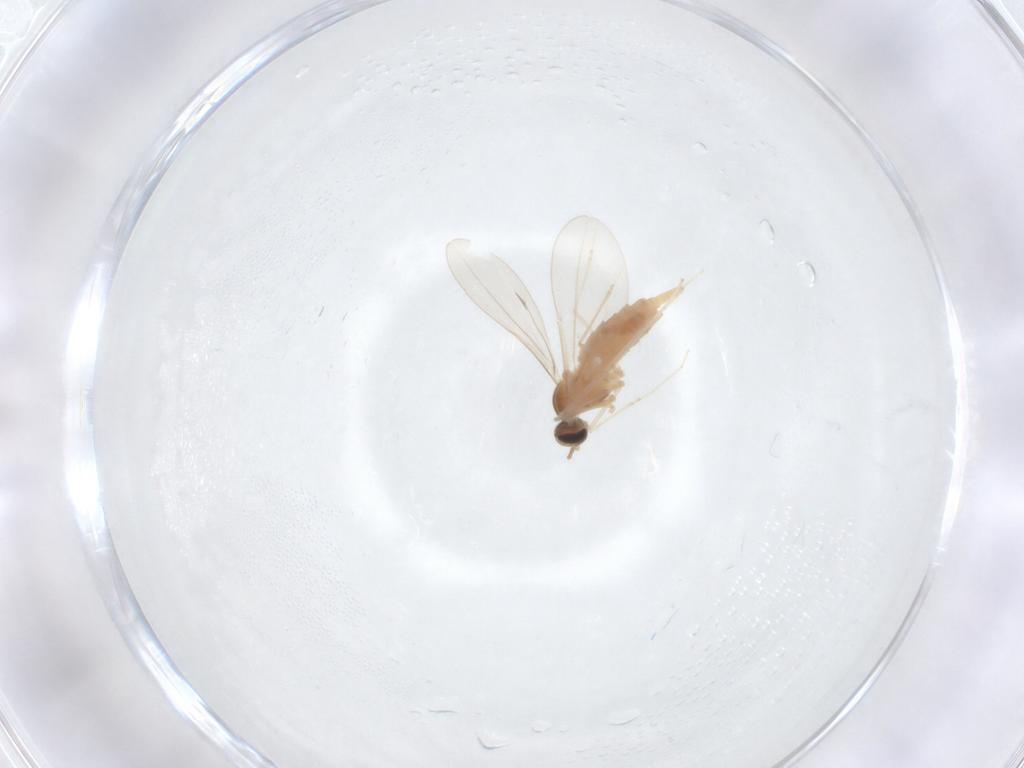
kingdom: Animalia
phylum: Arthropoda
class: Insecta
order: Diptera
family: Cecidomyiidae
